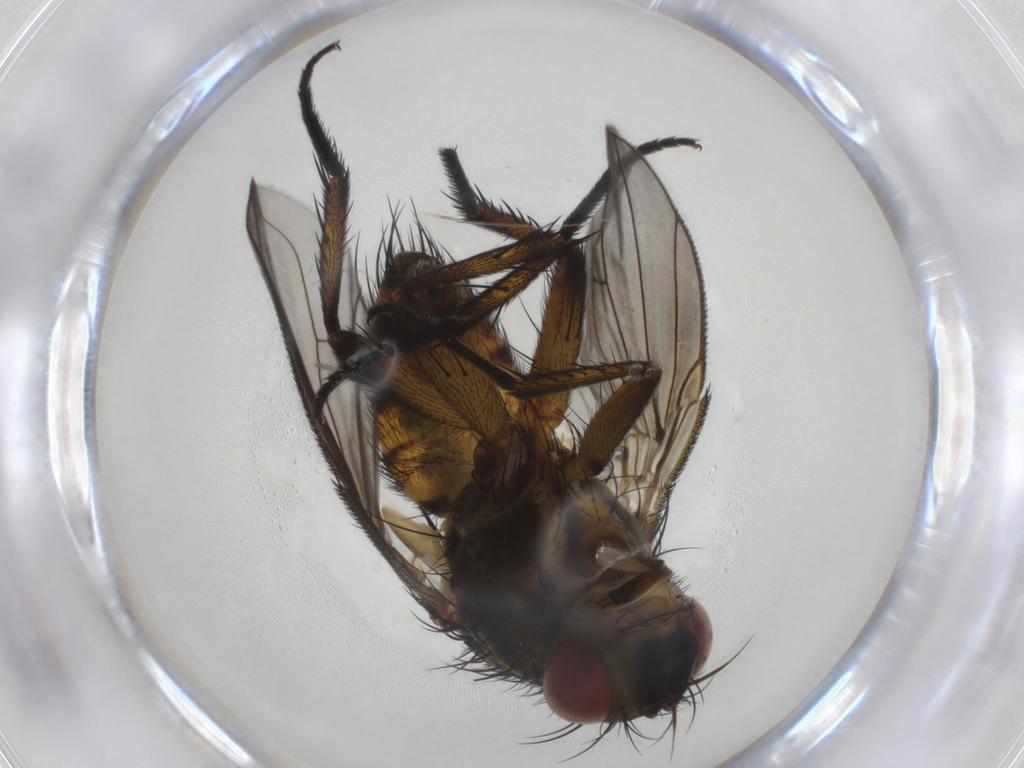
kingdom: Animalia
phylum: Arthropoda
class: Insecta
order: Diptera
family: Tachinidae
